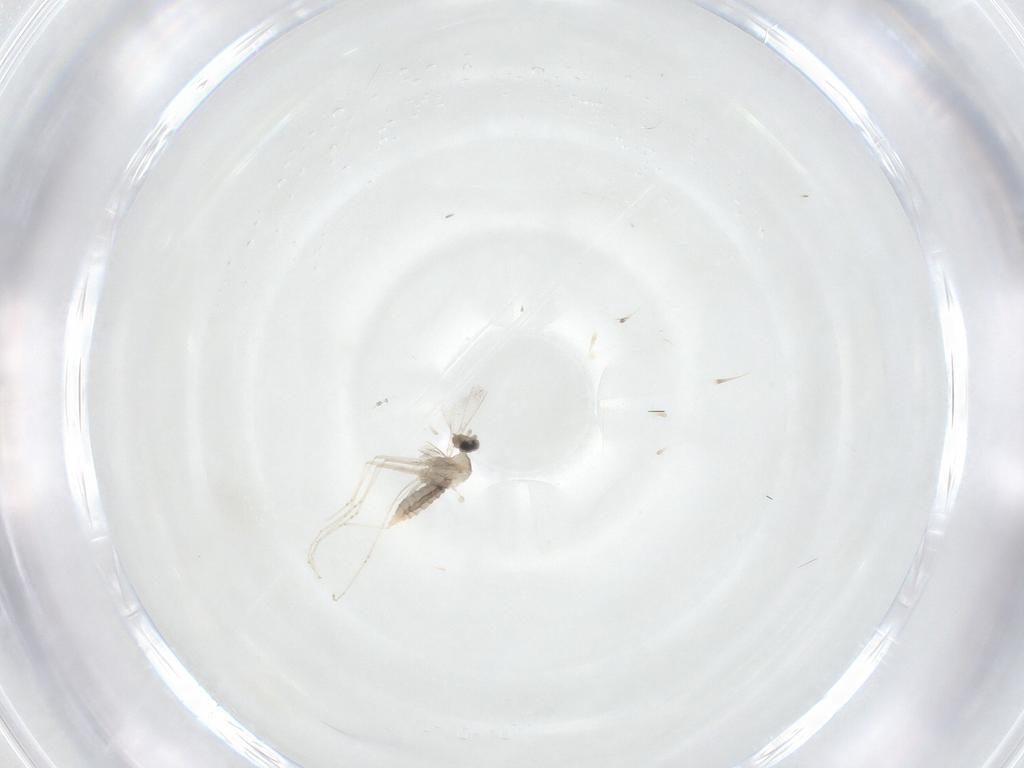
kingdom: Animalia
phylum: Arthropoda
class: Insecta
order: Diptera
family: Cecidomyiidae
